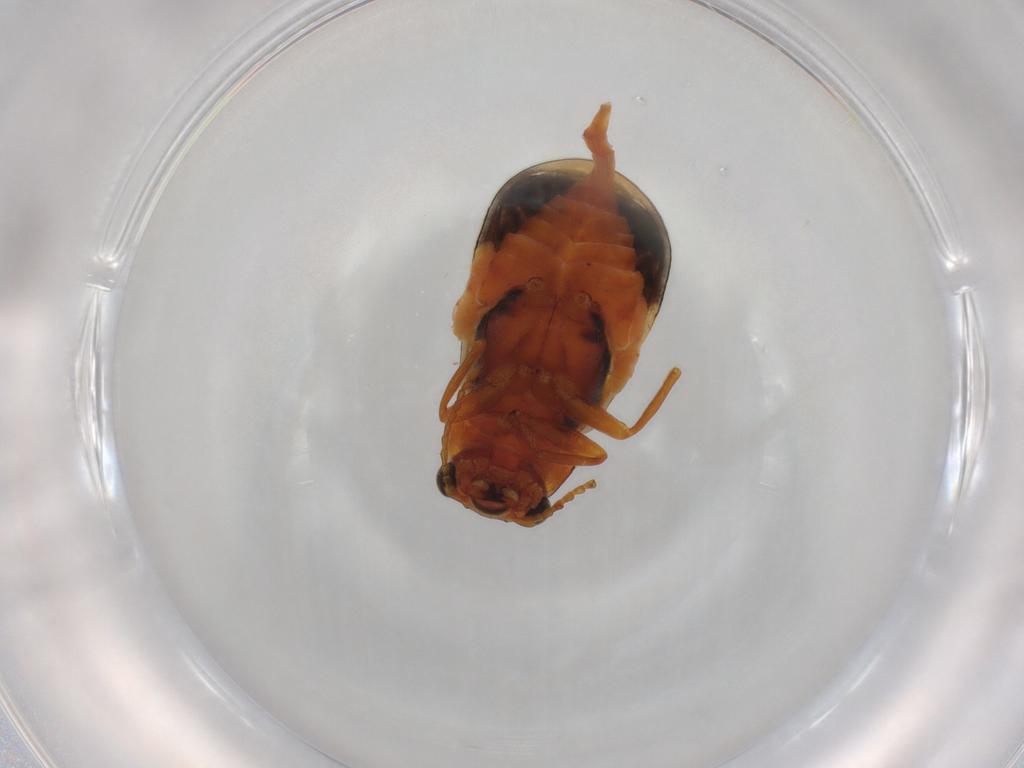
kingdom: Animalia
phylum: Arthropoda
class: Insecta
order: Coleoptera
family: Melyridae
